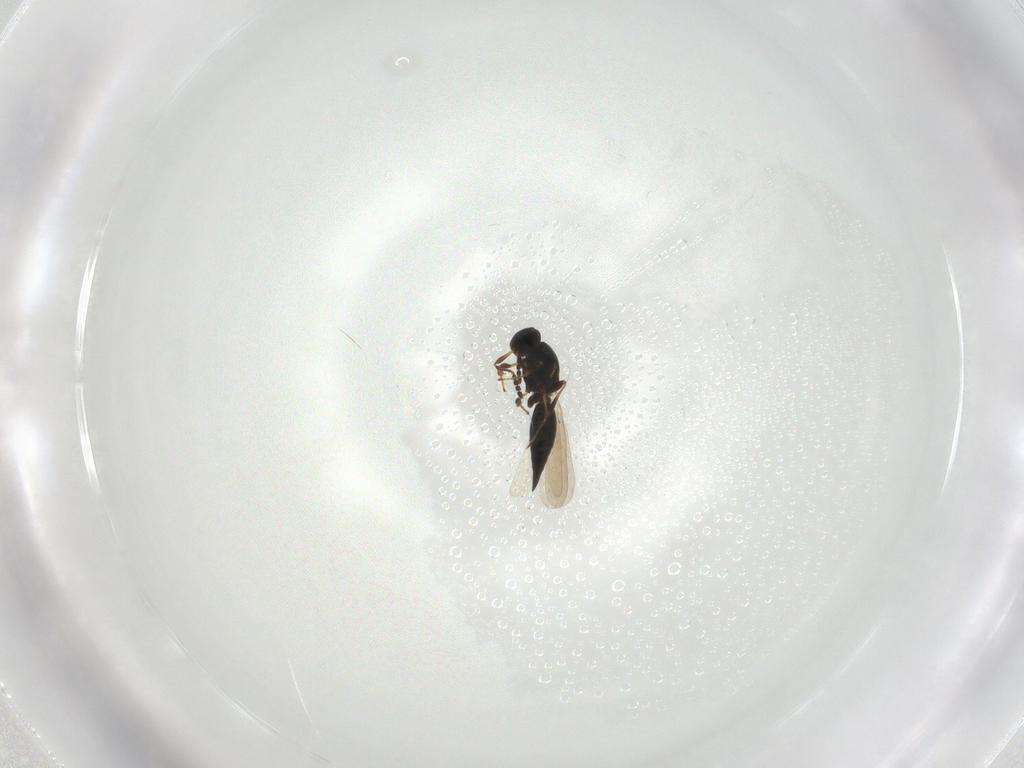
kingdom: Animalia
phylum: Arthropoda
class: Insecta
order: Hymenoptera
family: Platygastridae
